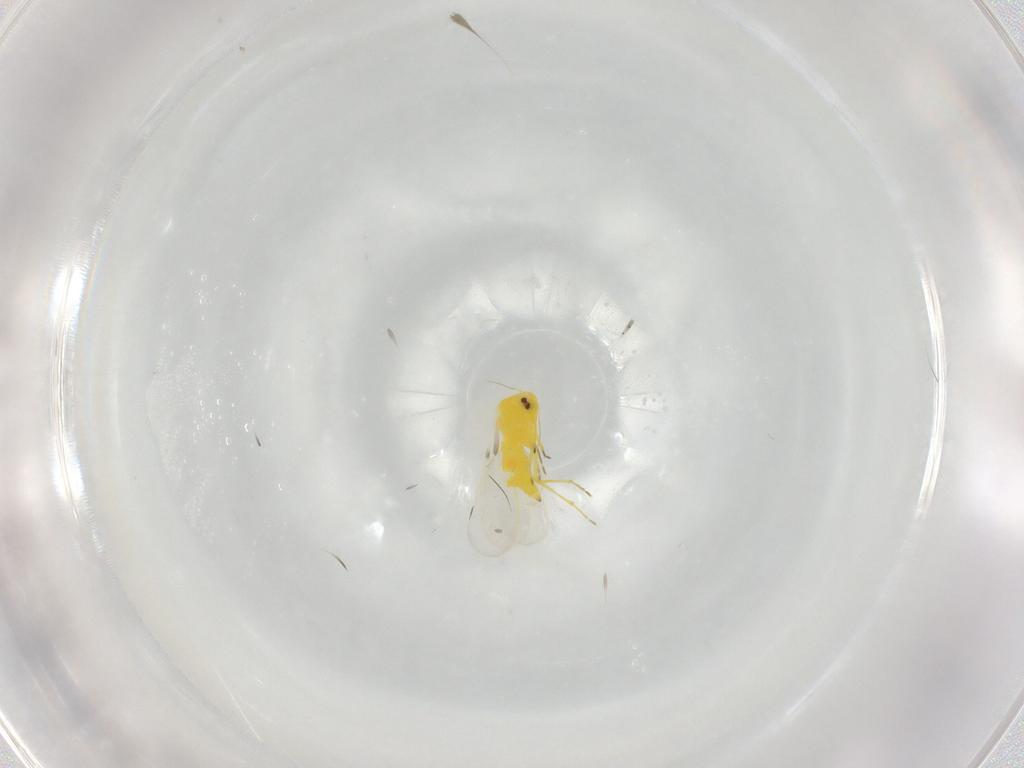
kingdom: Animalia
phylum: Arthropoda
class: Insecta
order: Hemiptera
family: Aleyrodidae
